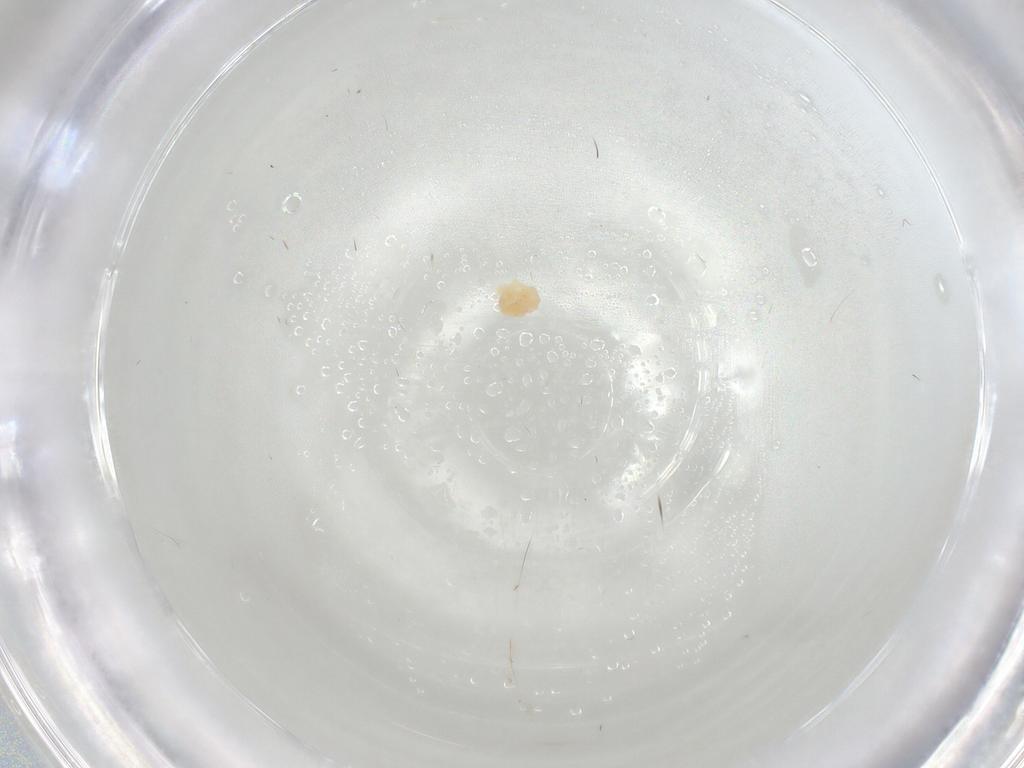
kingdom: Animalia
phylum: Arthropoda
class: Insecta
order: Diptera
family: Chloropidae
